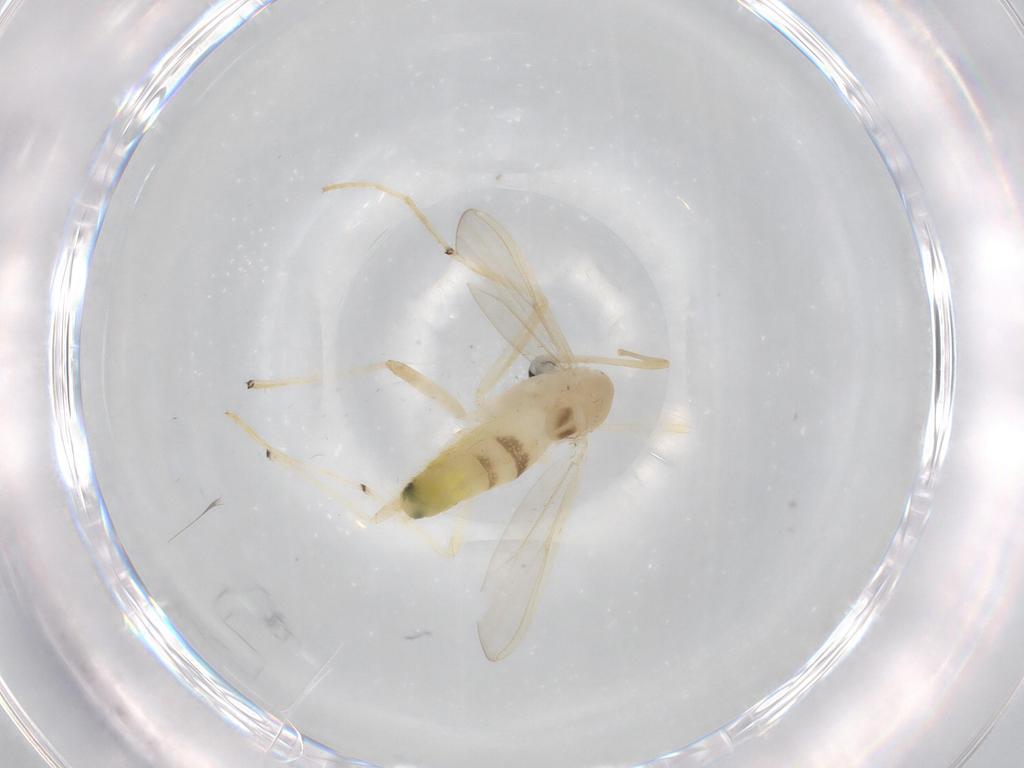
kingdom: Animalia
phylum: Arthropoda
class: Insecta
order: Diptera
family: Chironomidae
